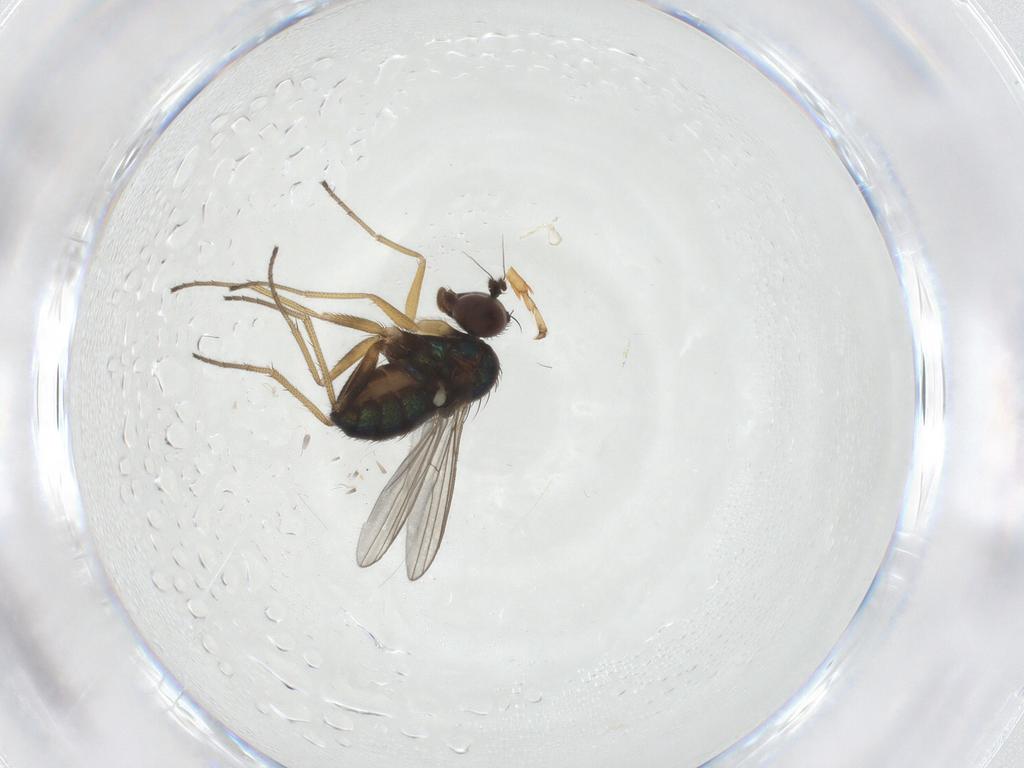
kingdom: Animalia
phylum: Arthropoda
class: Insecta
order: Diptera
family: Dolichopodidae
